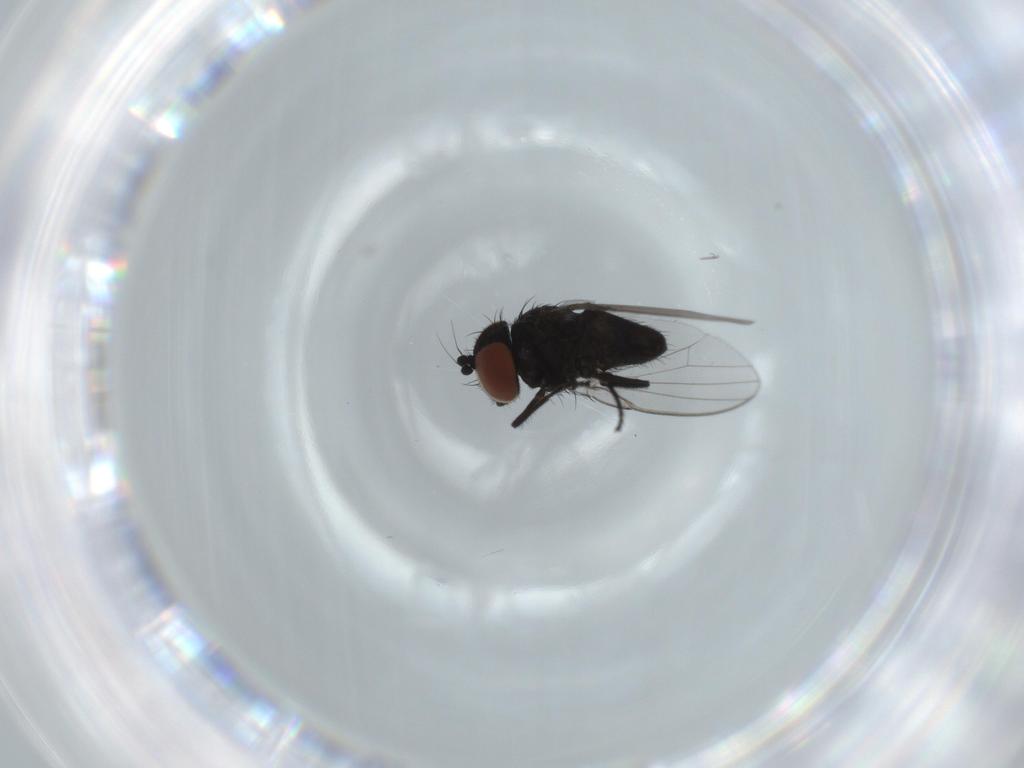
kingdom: Animalia
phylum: Arthropoda
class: Insecta
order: Diptera
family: Milichiidae
